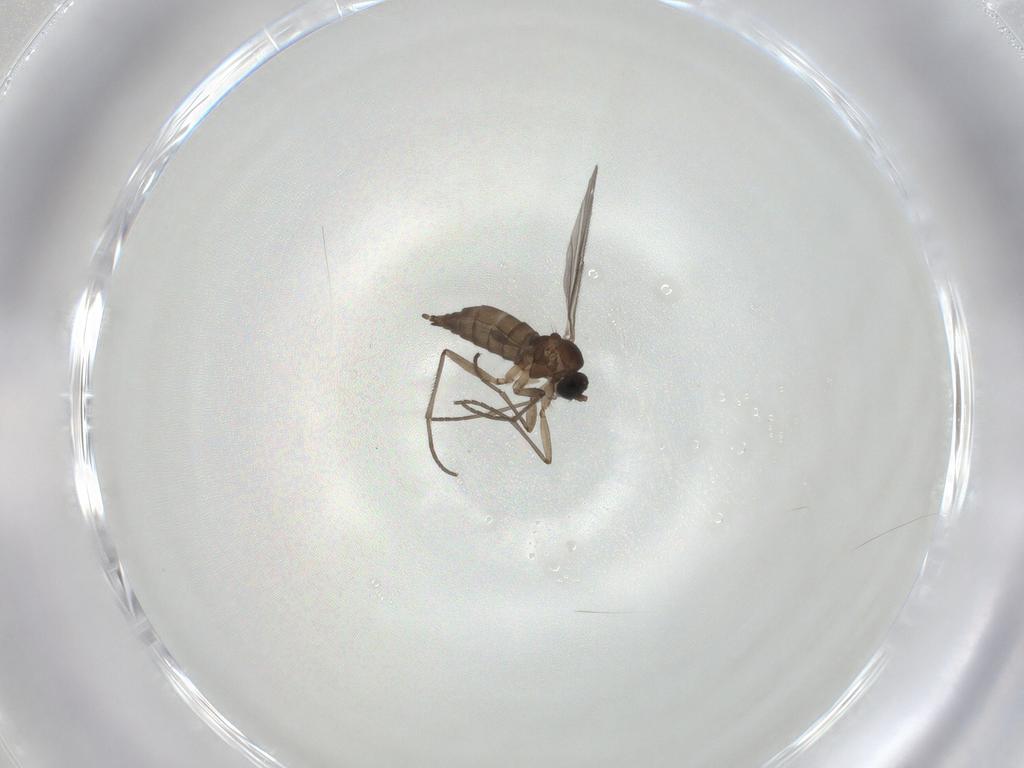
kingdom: Animalia
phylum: Arthropoda
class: Insecta
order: Diptera
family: Sciaridae
